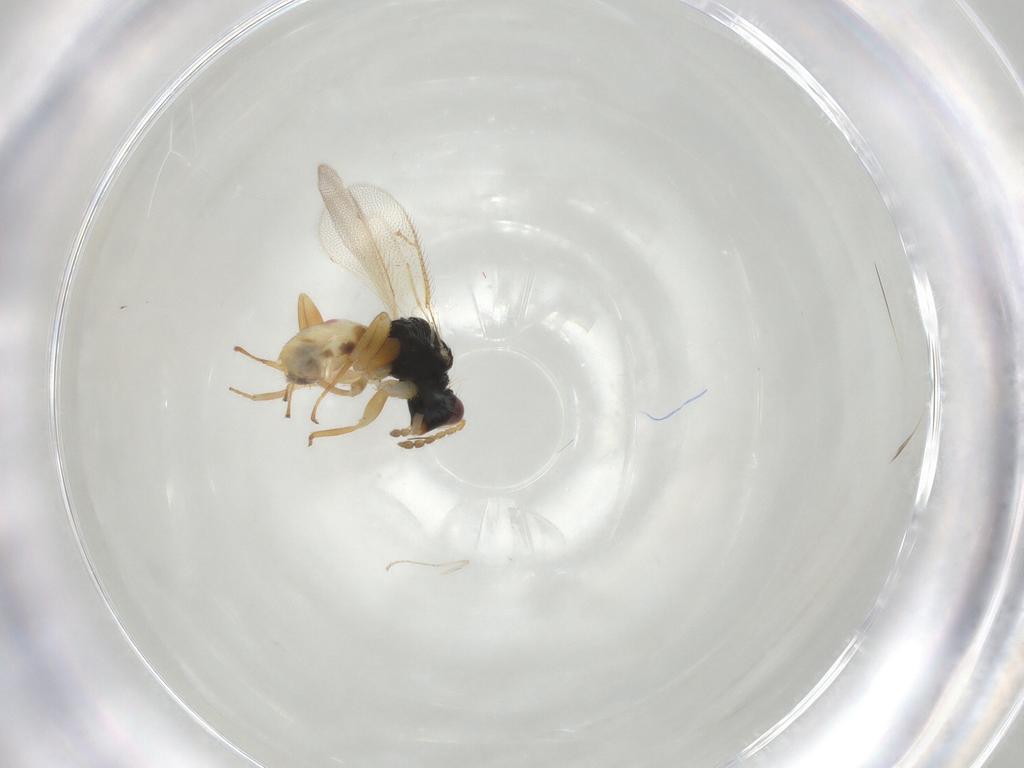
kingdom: Animalia
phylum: Arthropoda
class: Insecta
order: Hymenoptera
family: Eulophidae
